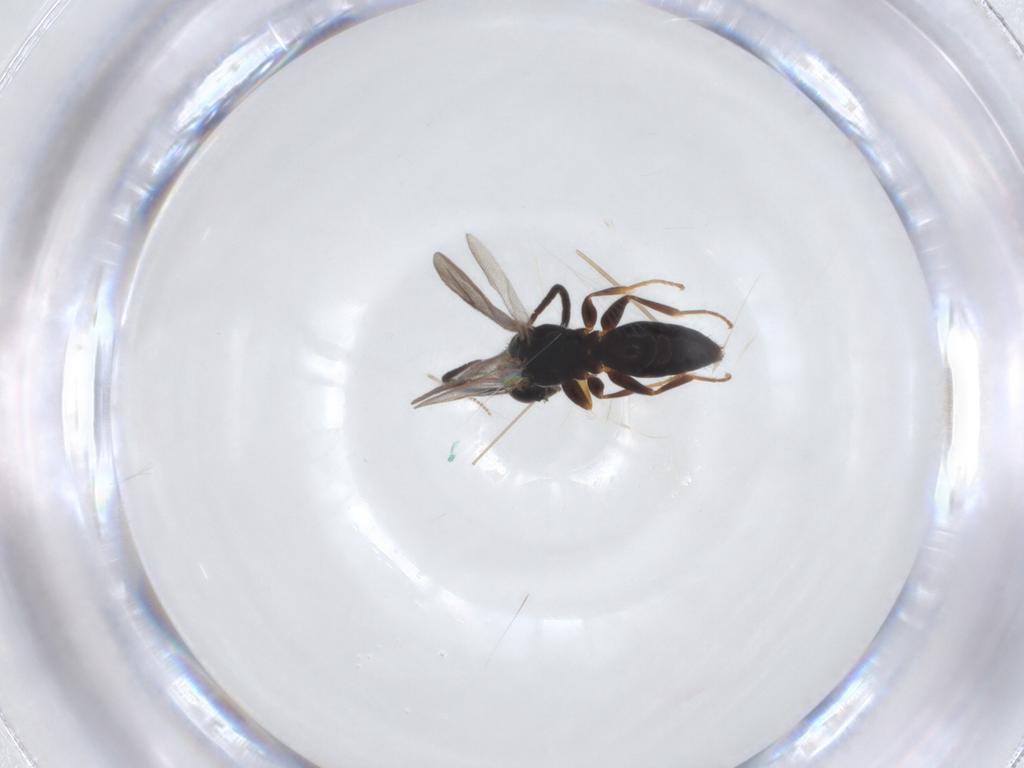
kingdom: Animalia
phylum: Arthropoda
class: Insecta
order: Hymenoptera
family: Bethylidae
